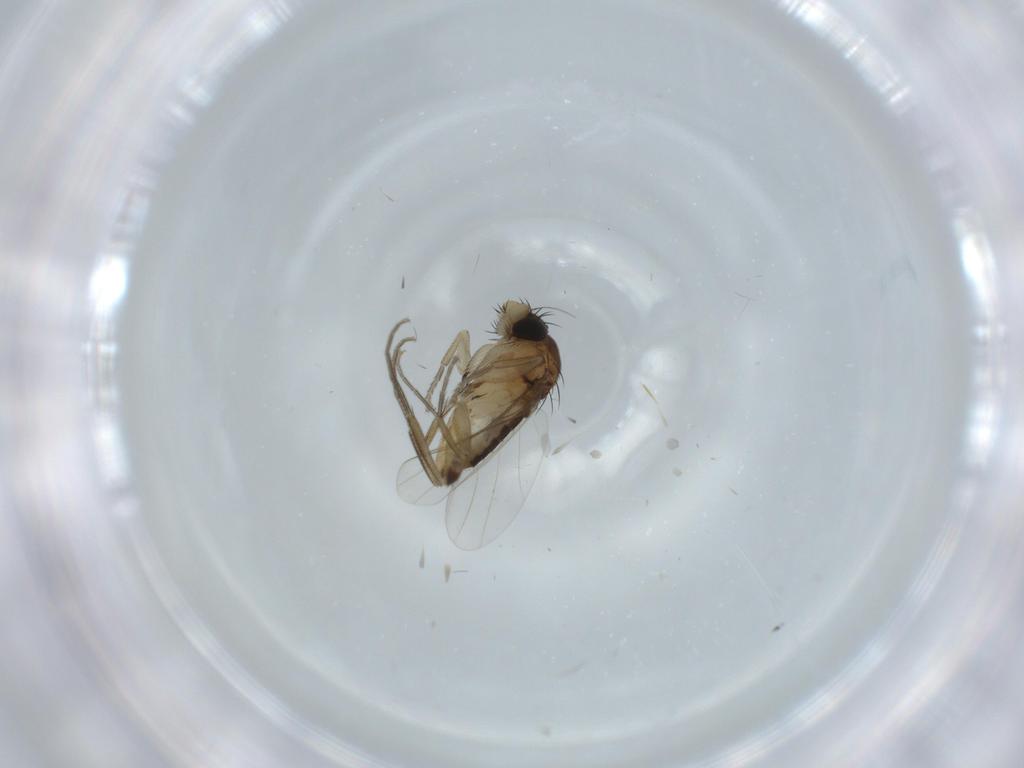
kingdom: Animalia
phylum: Arthropoda
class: Insecta
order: Diptera
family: Phoridae
